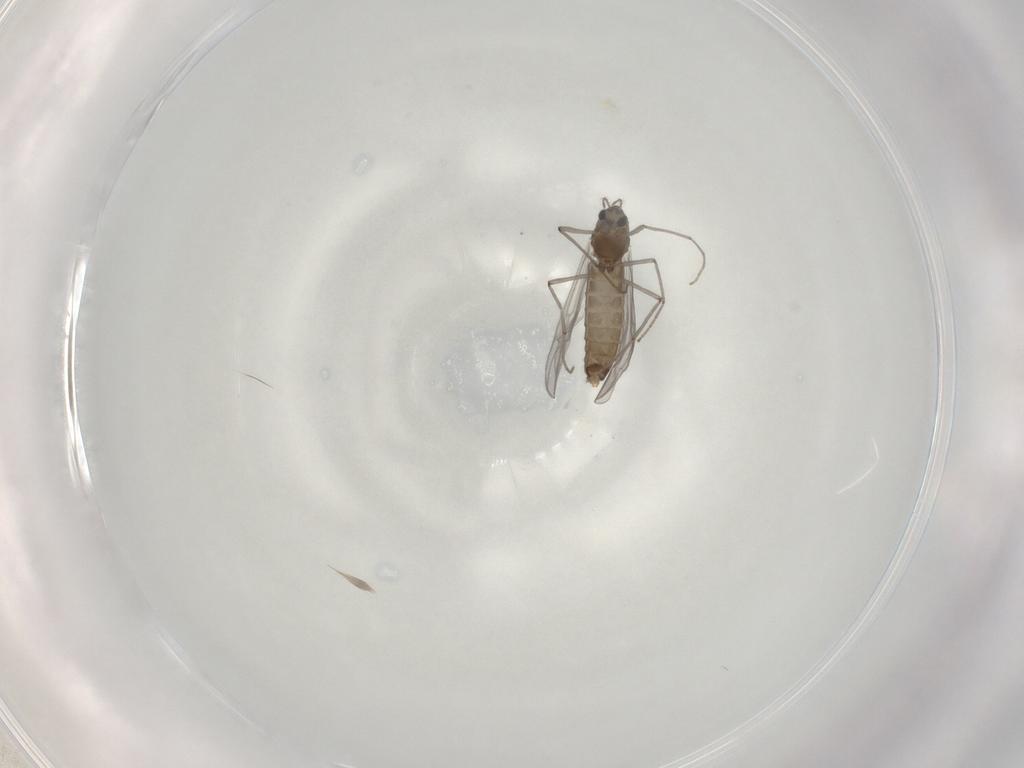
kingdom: Animalia
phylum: Arthropoda
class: Insecta
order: Diptera
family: Chironomidae
